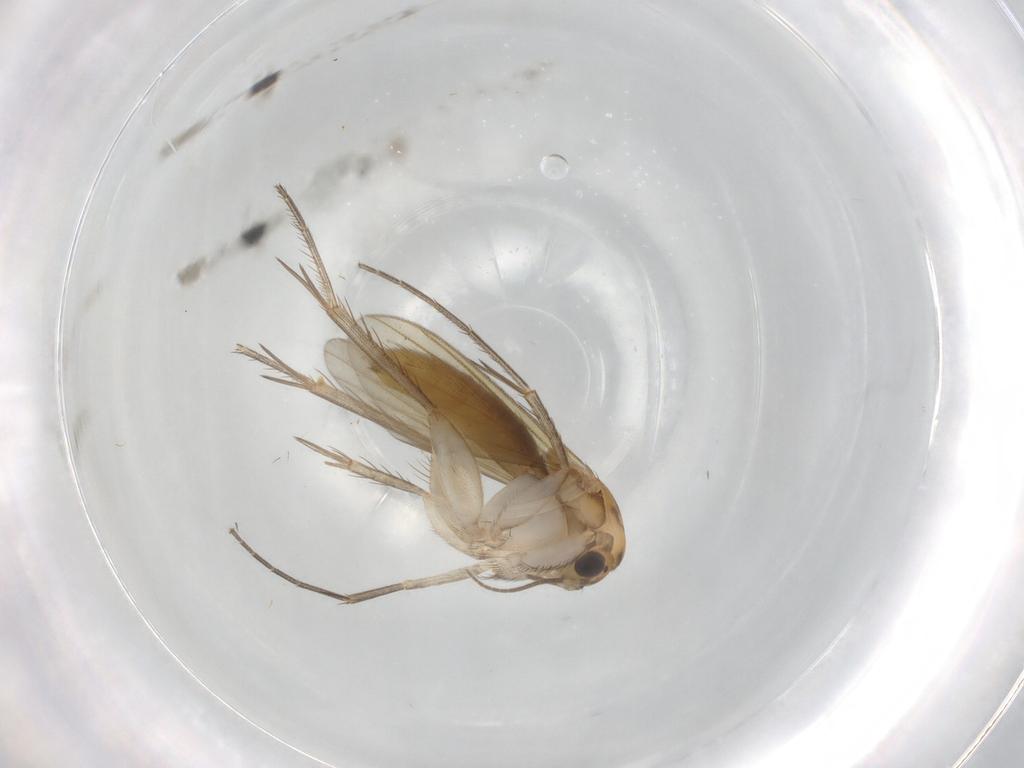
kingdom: Animalia
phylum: Arthropoda
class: Insecta
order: Diptera
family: Mycetophilidae
